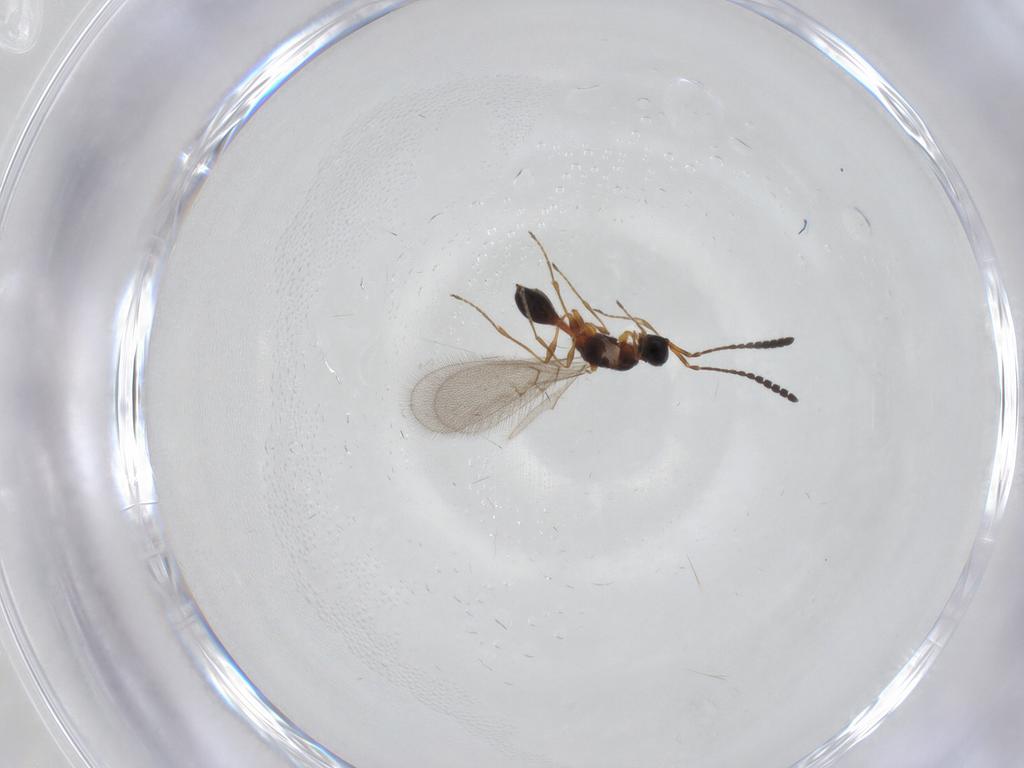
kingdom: Animalia
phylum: Arthropoda
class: Insecta
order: Hymenoptera
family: Diapriidae
